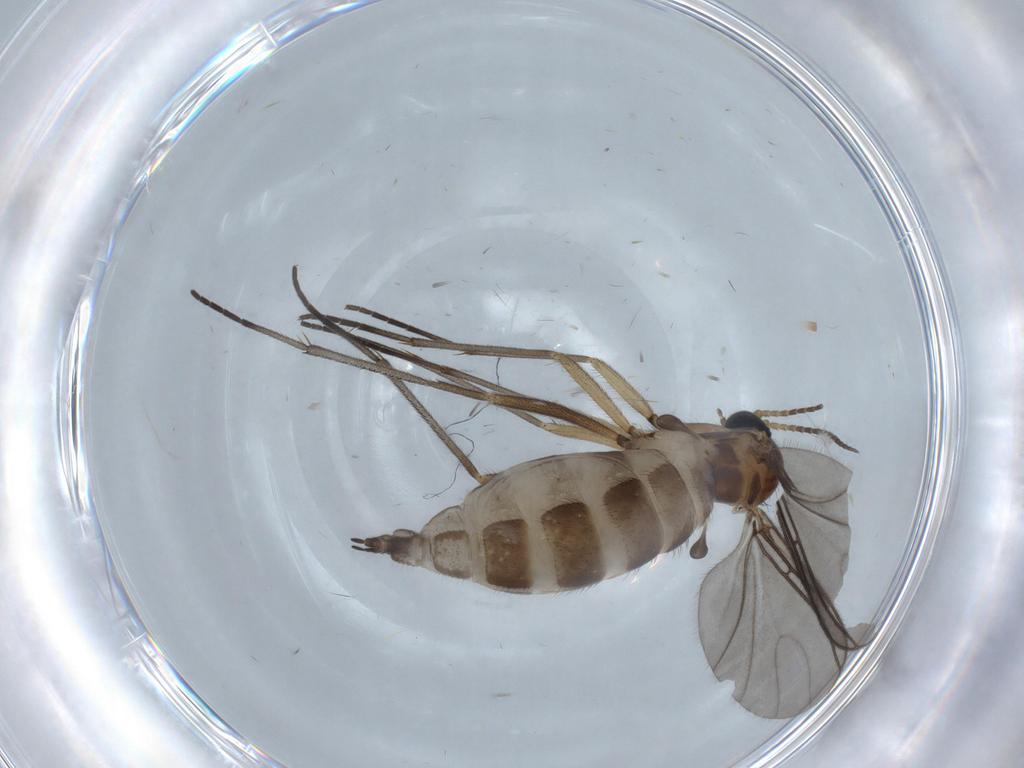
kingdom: Animalia
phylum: Arthropoda
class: Insecta
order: Diptera
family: Sciaridae
